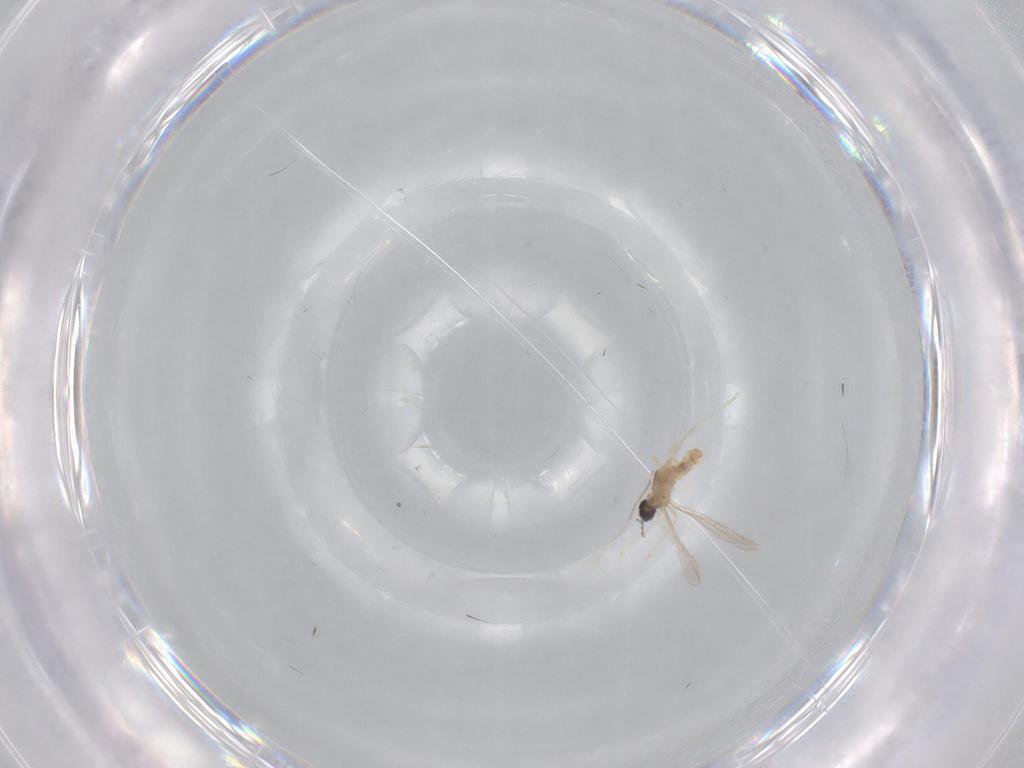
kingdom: Animalia
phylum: Arthropoda
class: Insecta
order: Diptera
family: Cecidomyiidae
